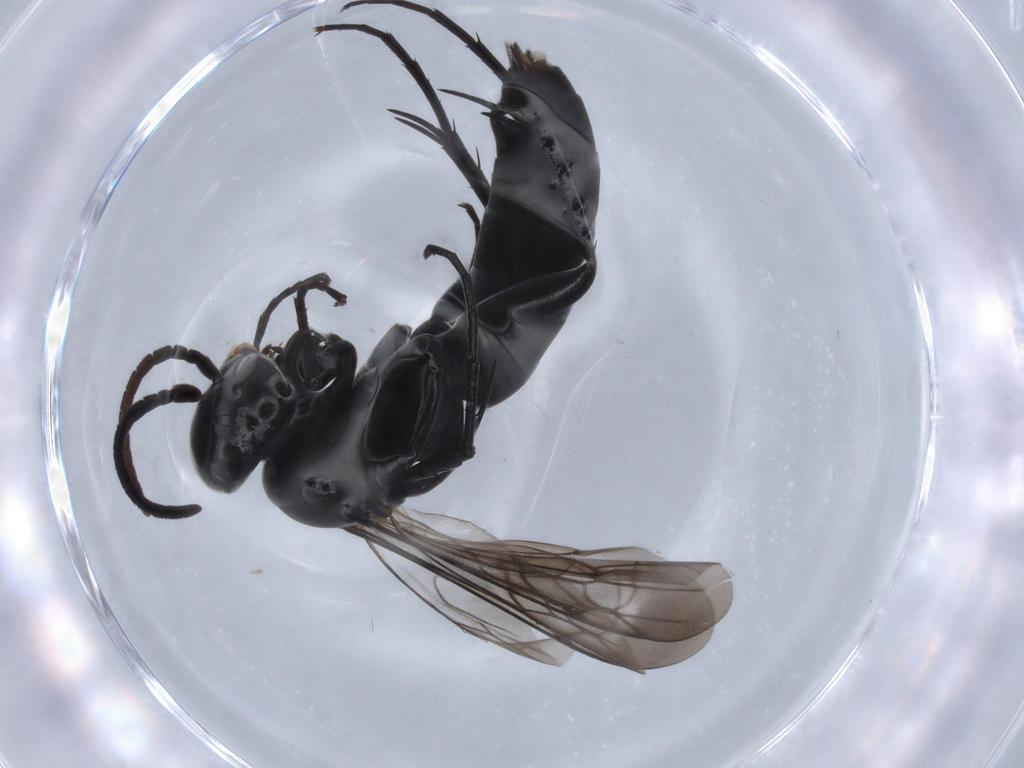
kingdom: Animalia
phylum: Arthropoda
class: Insecta
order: Hymenoptera
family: Pompilidae
